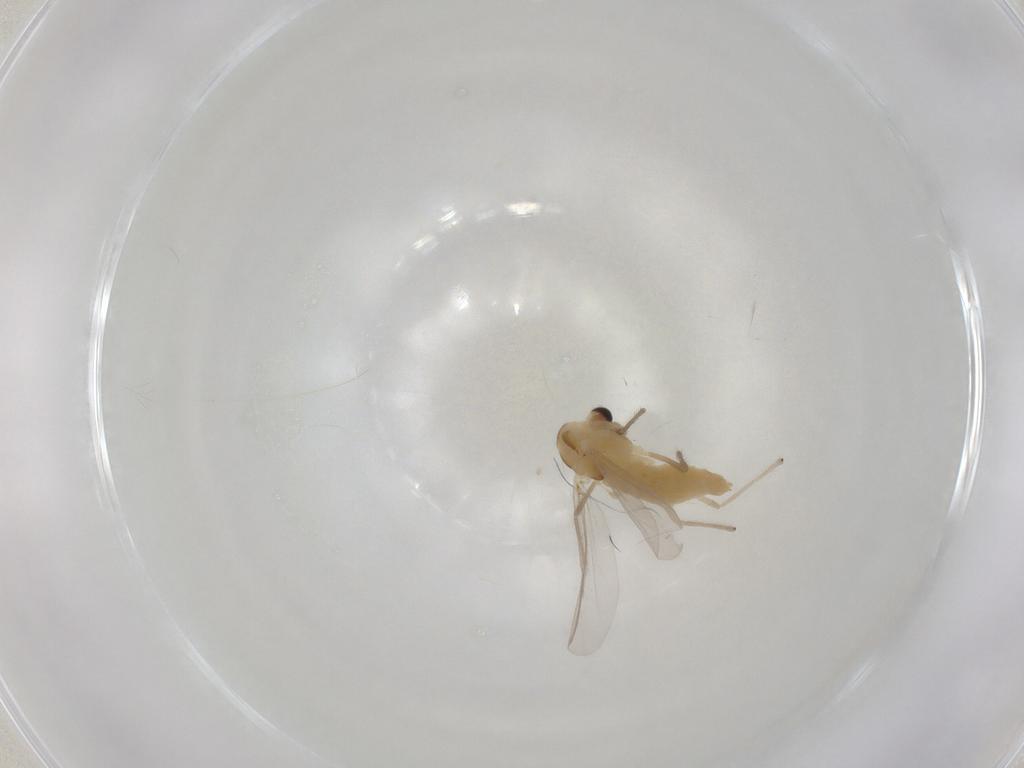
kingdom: Animalia
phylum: Arthropoda
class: Insecta
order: Diptera
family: Chironomidae
